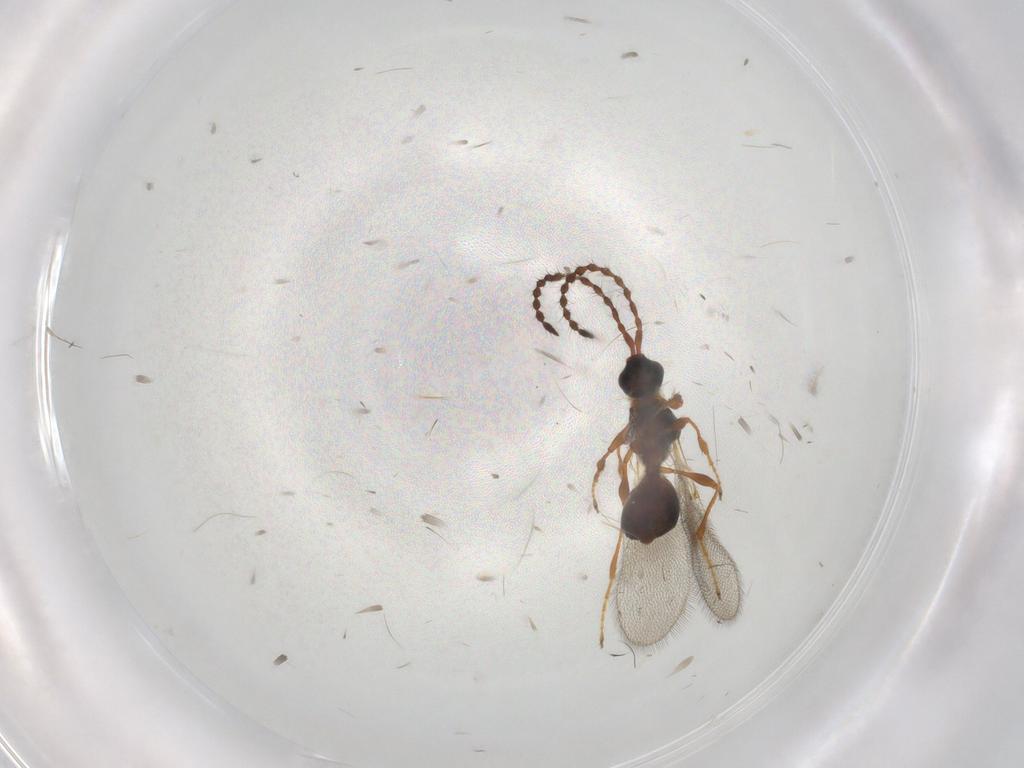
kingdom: Animalia
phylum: Arthropoda
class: Insecta
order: Hymenoptera
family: Diapriidae
